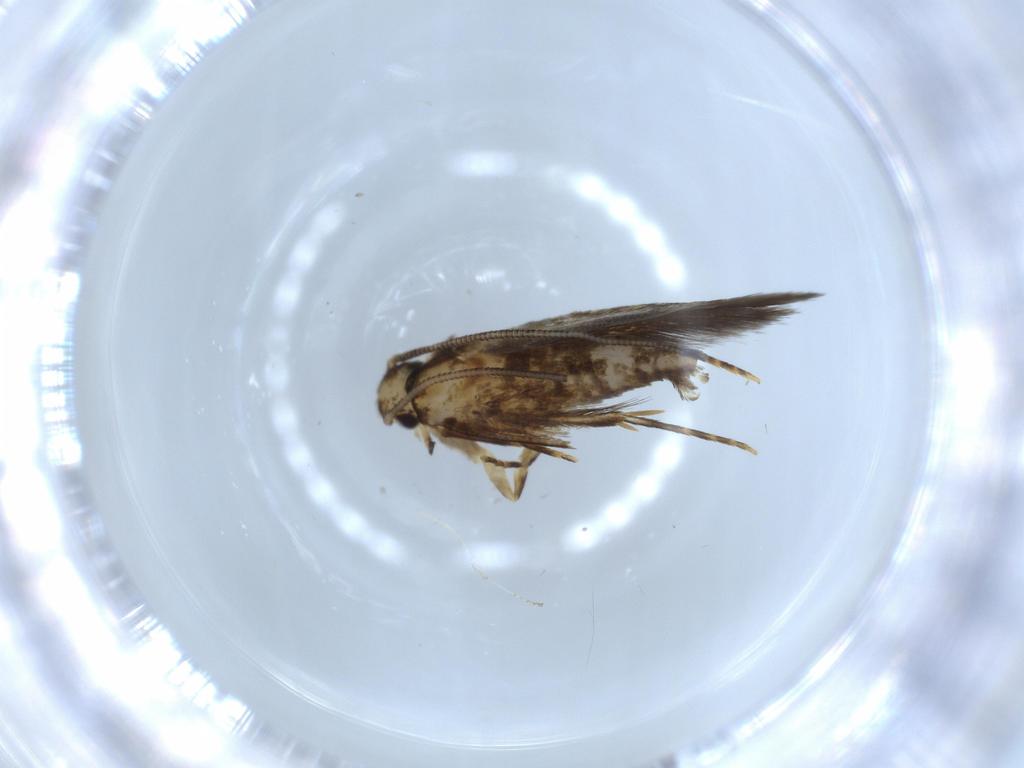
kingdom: Animalia
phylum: Arthropoda
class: Insecta
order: Lepidoptera
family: Tineidae
